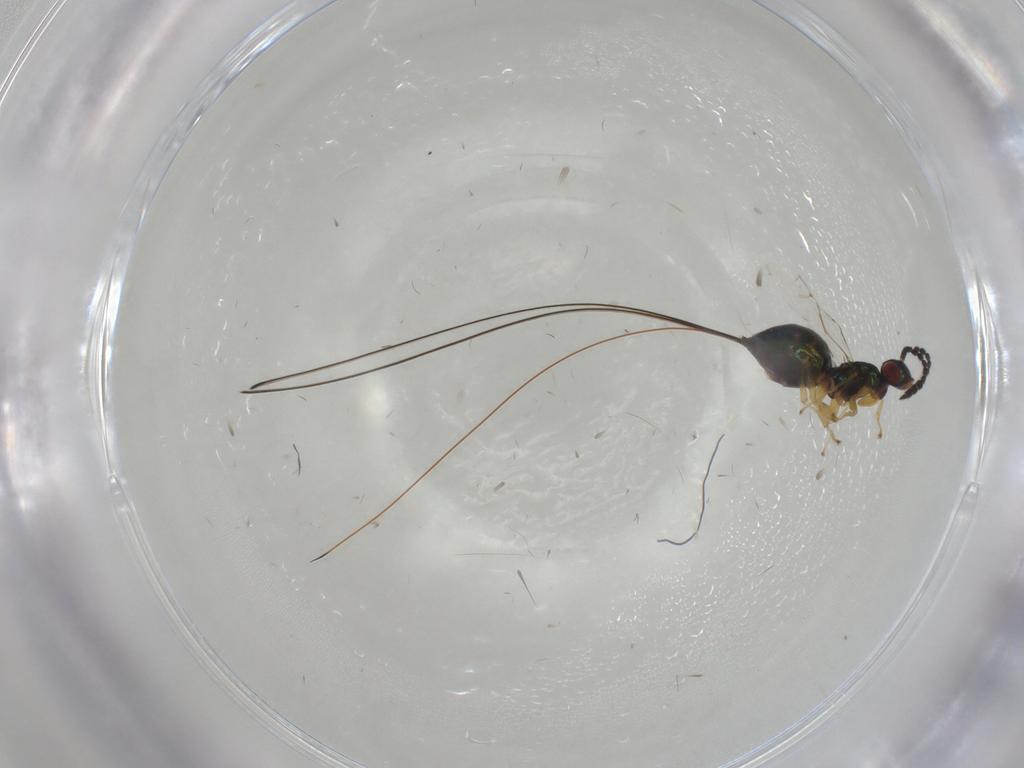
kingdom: Animalia
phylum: Arthropoda
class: Insecta
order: Hymenoptera
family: Pteromalidae
